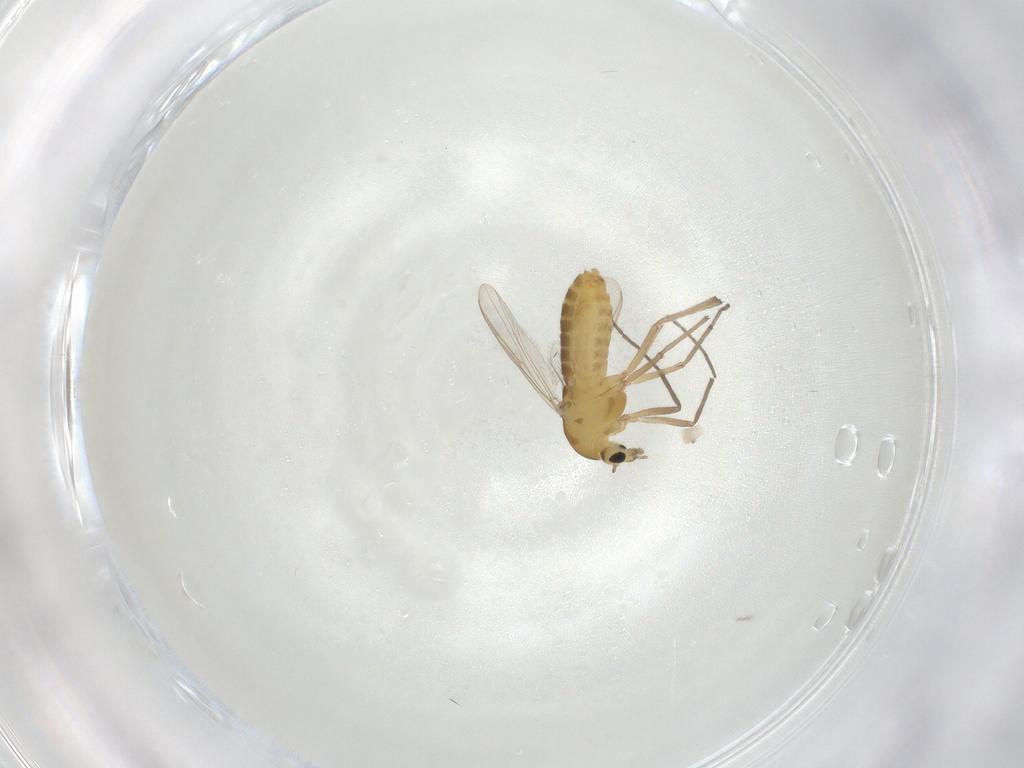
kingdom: Animalia
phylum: Arthropoda
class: Insecta
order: Diptera
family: Chironomidae
